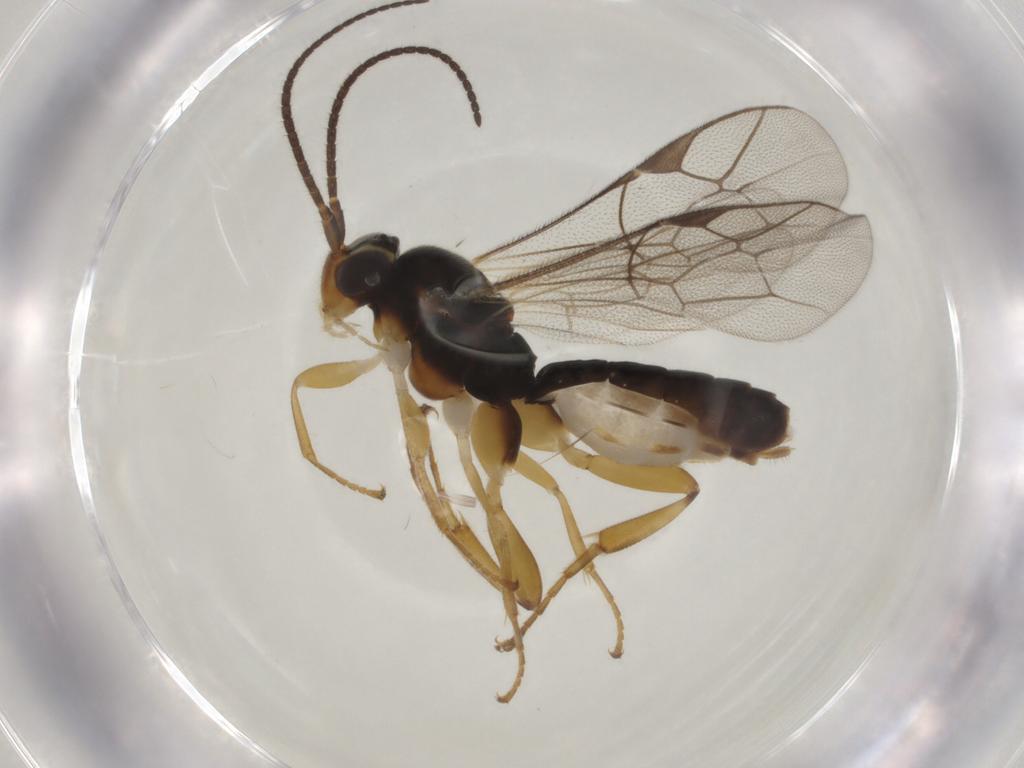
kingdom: Animalia
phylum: Arthropoda
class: Insecta
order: Hymenoptera
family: Ichneumonidae
